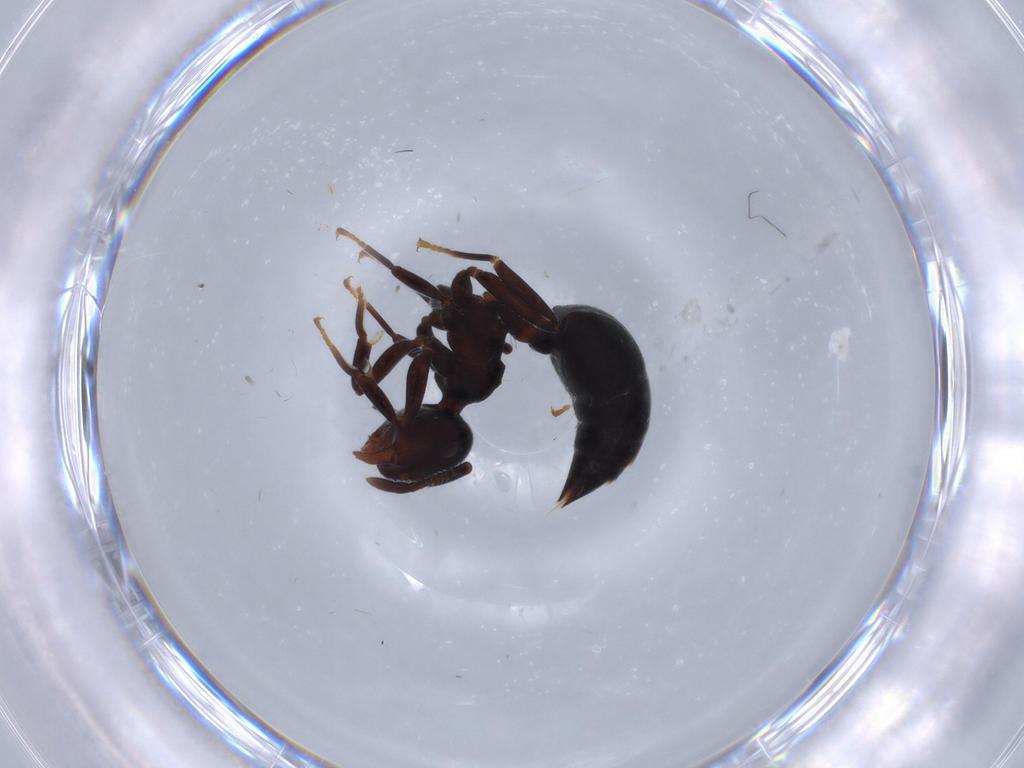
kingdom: Animalia
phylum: Arthropoda
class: Insecta
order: Hymenoptera
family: Formicidae
